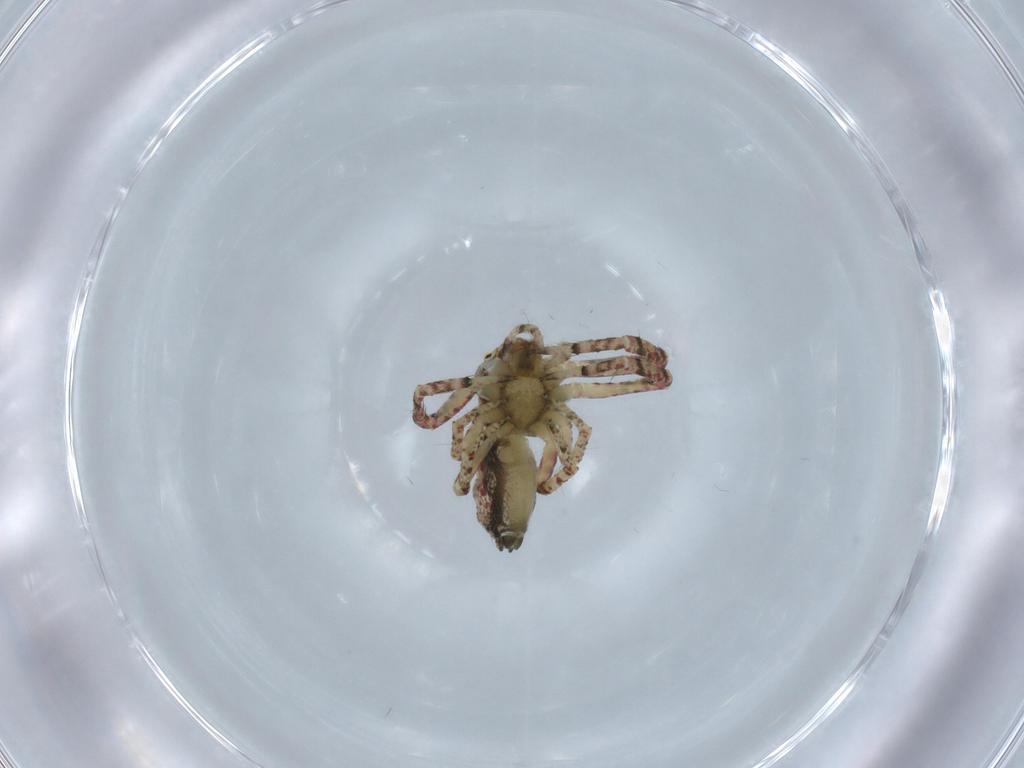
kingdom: Animalia
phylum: Arthropoda
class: Arachnida
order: Araneae
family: Thomisidae
